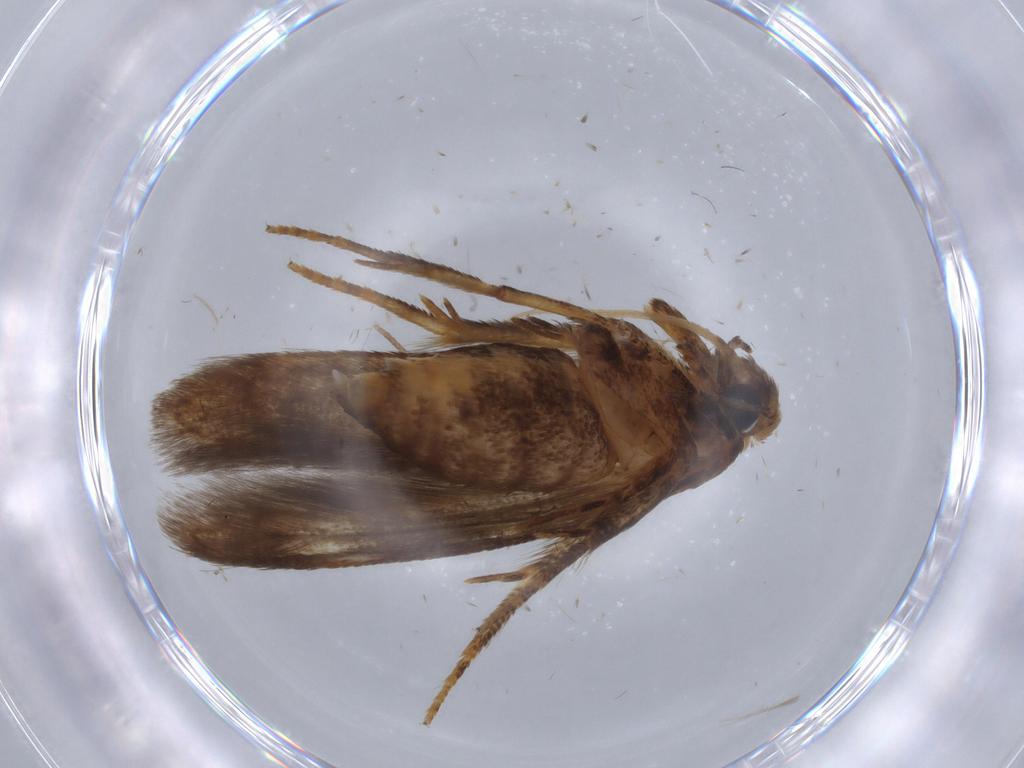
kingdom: Animalia
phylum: Arthropoda
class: Insecta
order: Lepidoptera
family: Blastobasidae
